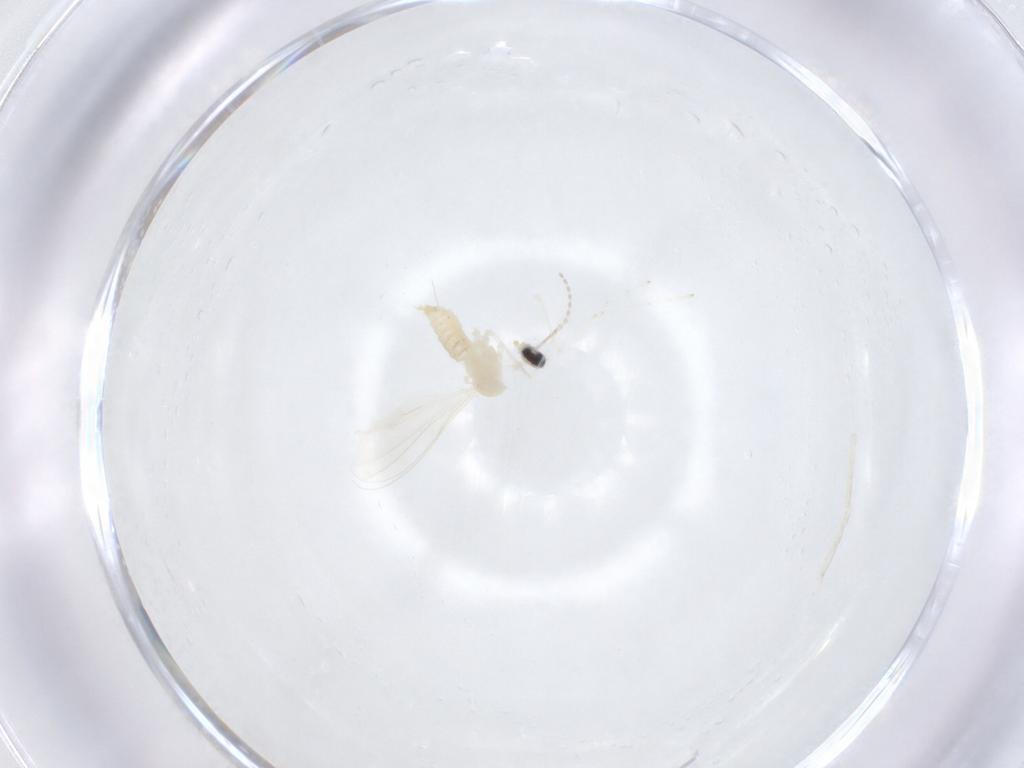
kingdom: Animalia
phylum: Arthropoda
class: Insecta
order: Diptera
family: Cecidomyiidae
